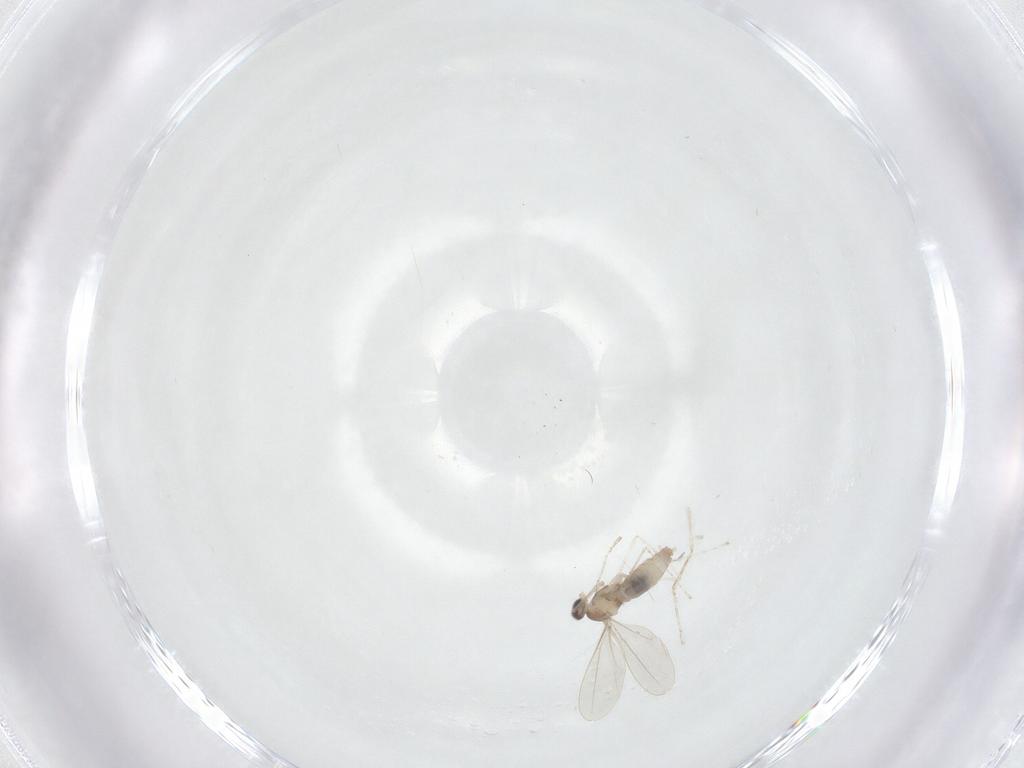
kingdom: Animalia
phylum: Arthropoda
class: Insecta
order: Diptera
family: Cecidomyiidae
